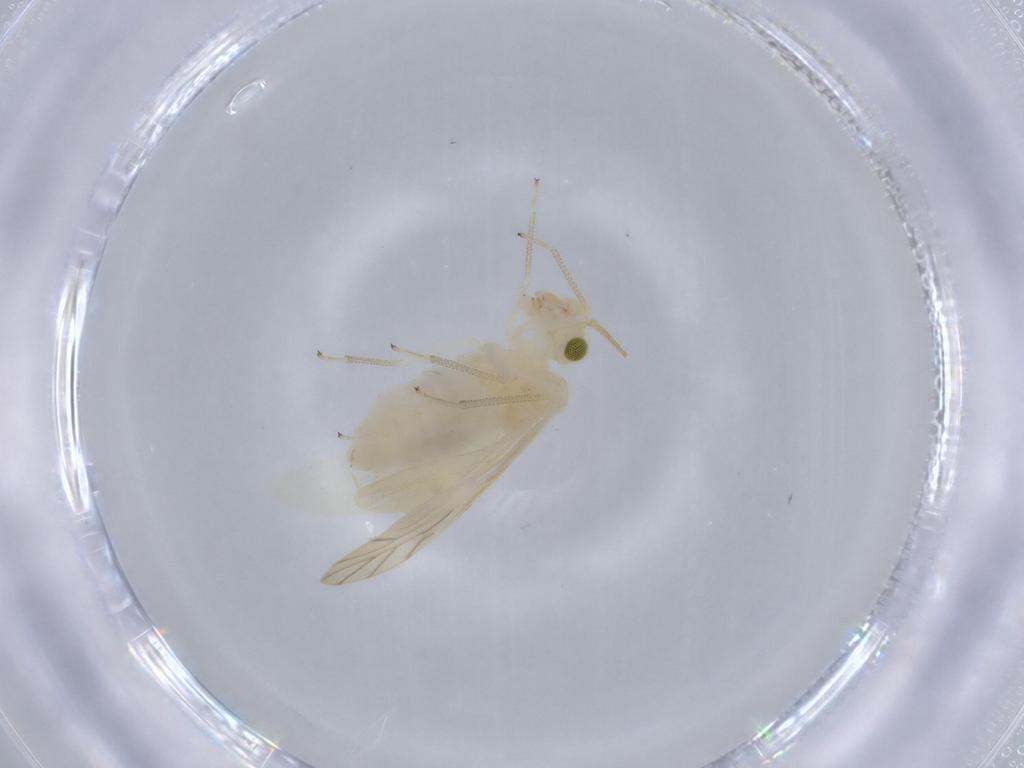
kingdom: Animalia
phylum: Arthropoda
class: Insecta
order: Psocodea
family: Caeciliusidae
